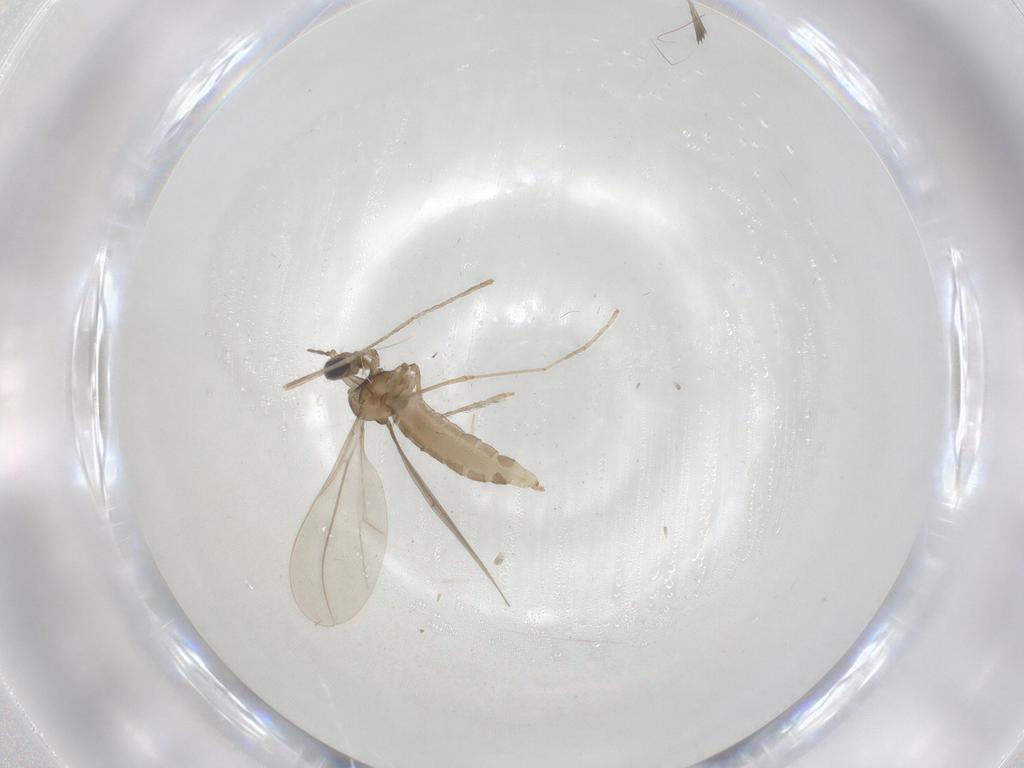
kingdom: Animalia
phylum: Arthropoda
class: Insecta
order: Diptera
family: Cecidomyiidae
